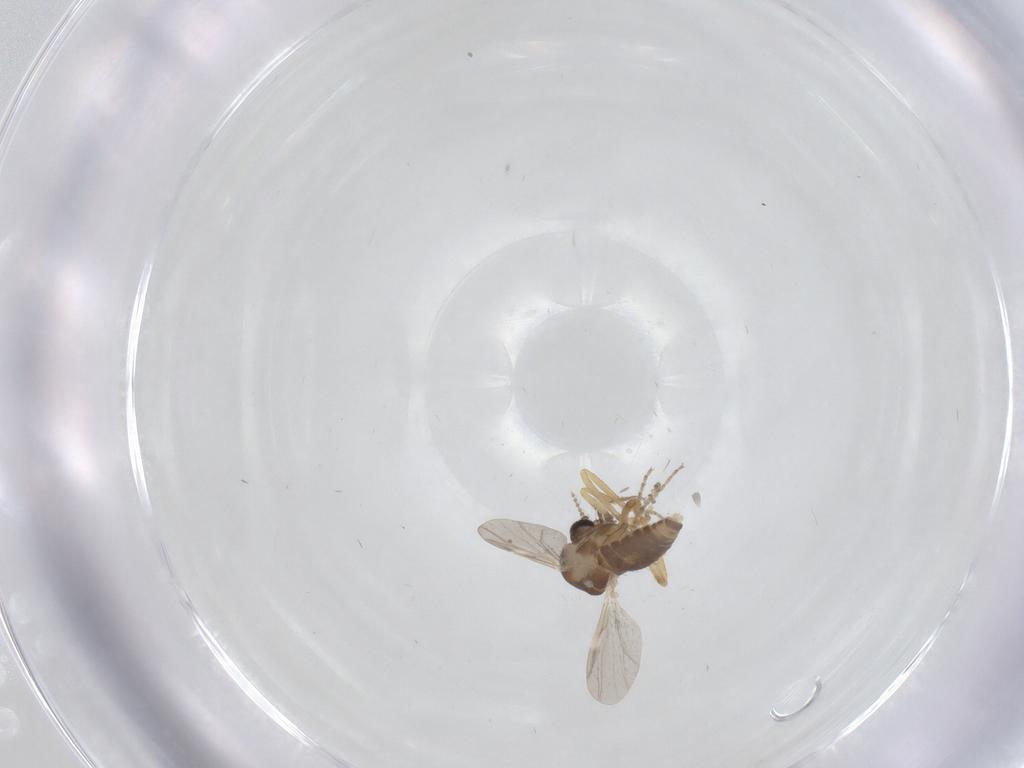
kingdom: Animalia
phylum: Arthropoda
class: Insecta
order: Diptera
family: Ceratopogonidae
